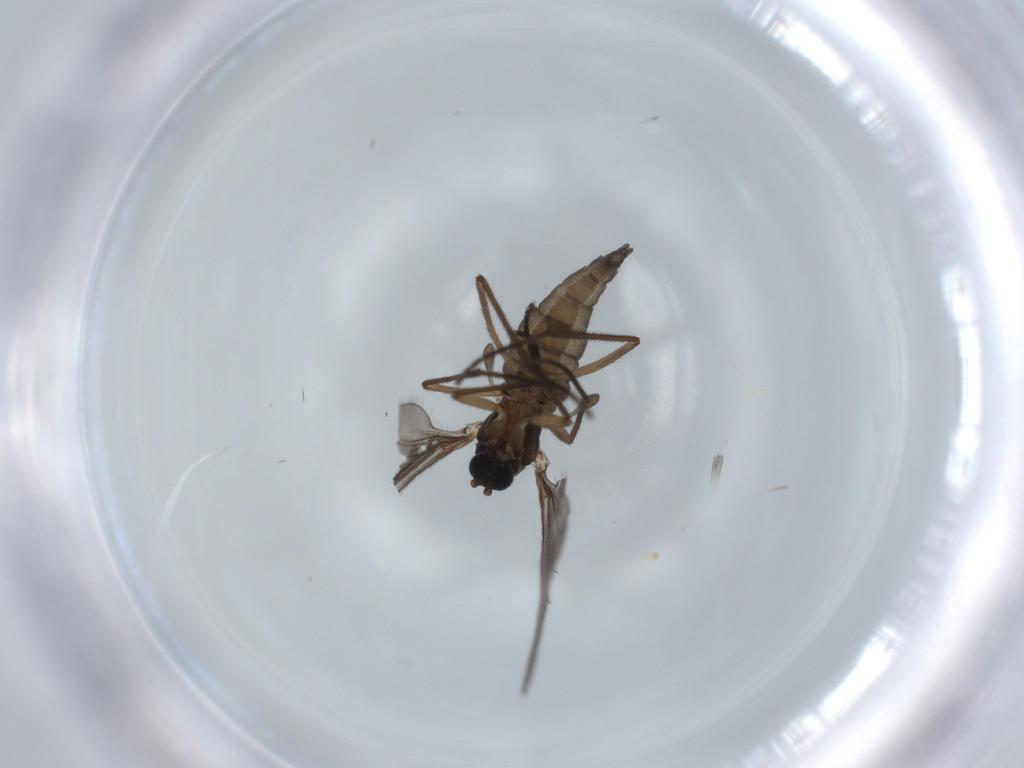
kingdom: Animalia
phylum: Arthropoda
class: Insecta
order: Diptera
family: Sciaridae
